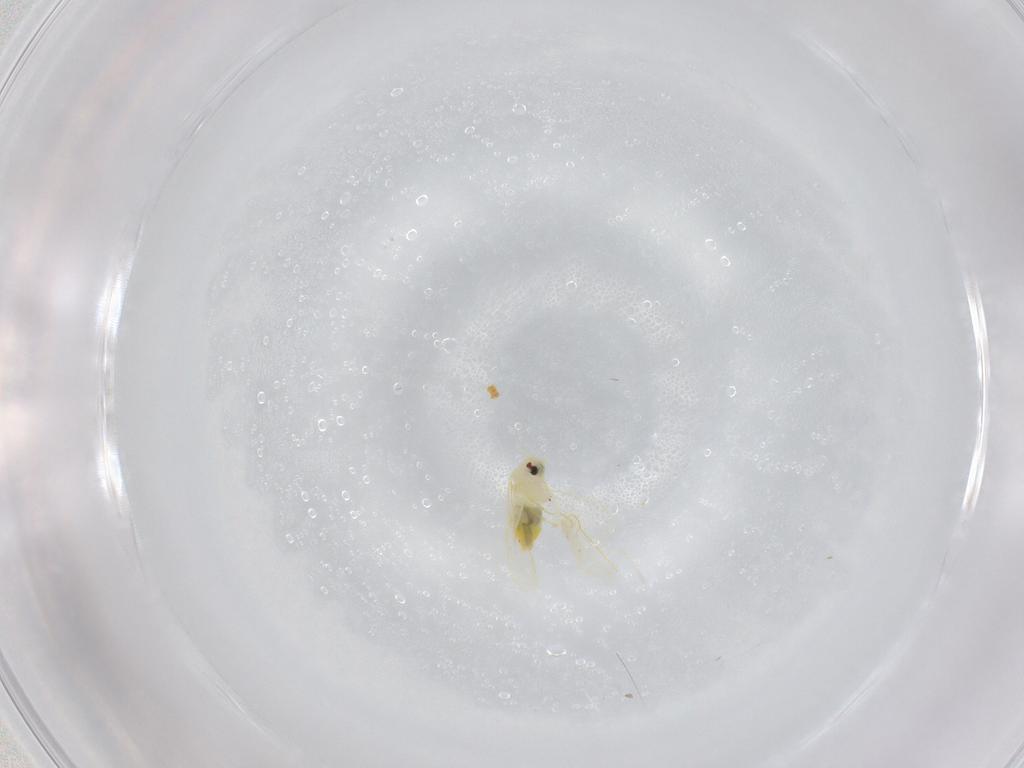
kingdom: Animalia
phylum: Arthropoda
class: Insecta
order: Hemiptera
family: Aleyrodidae
